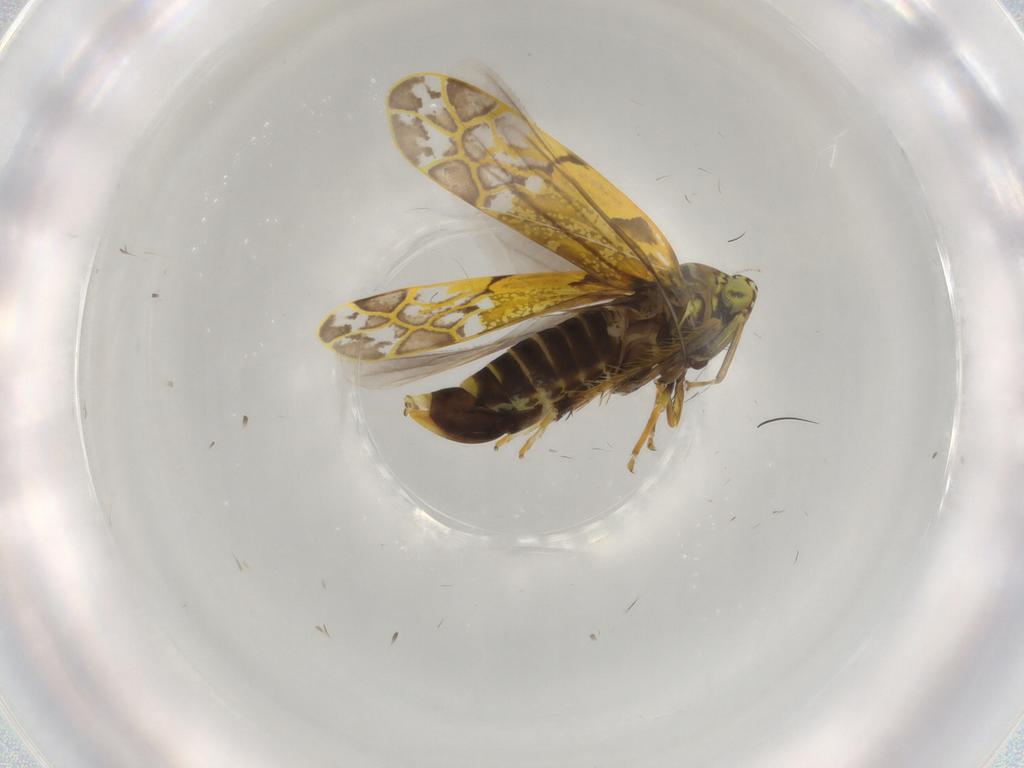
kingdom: Animalia
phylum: Arthropoda
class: Insecta
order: Hemiptera
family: Cicadellidae
